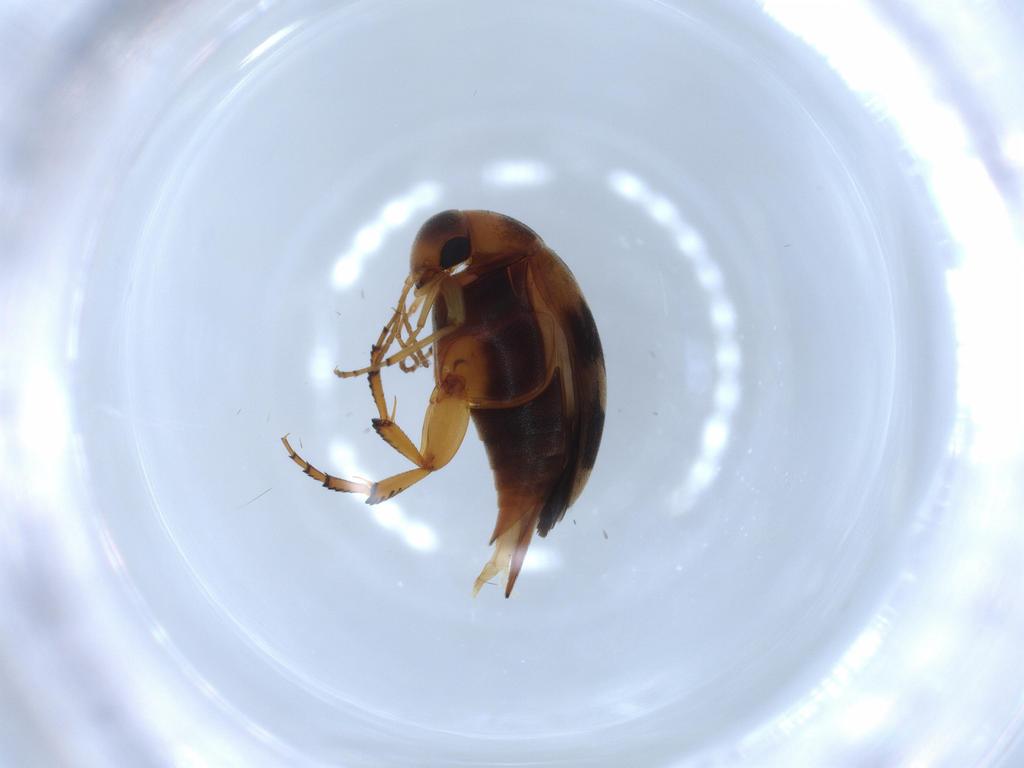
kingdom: Animalia
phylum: Arthropoda
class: Insecta
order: Coleoptera
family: Mordellidae
